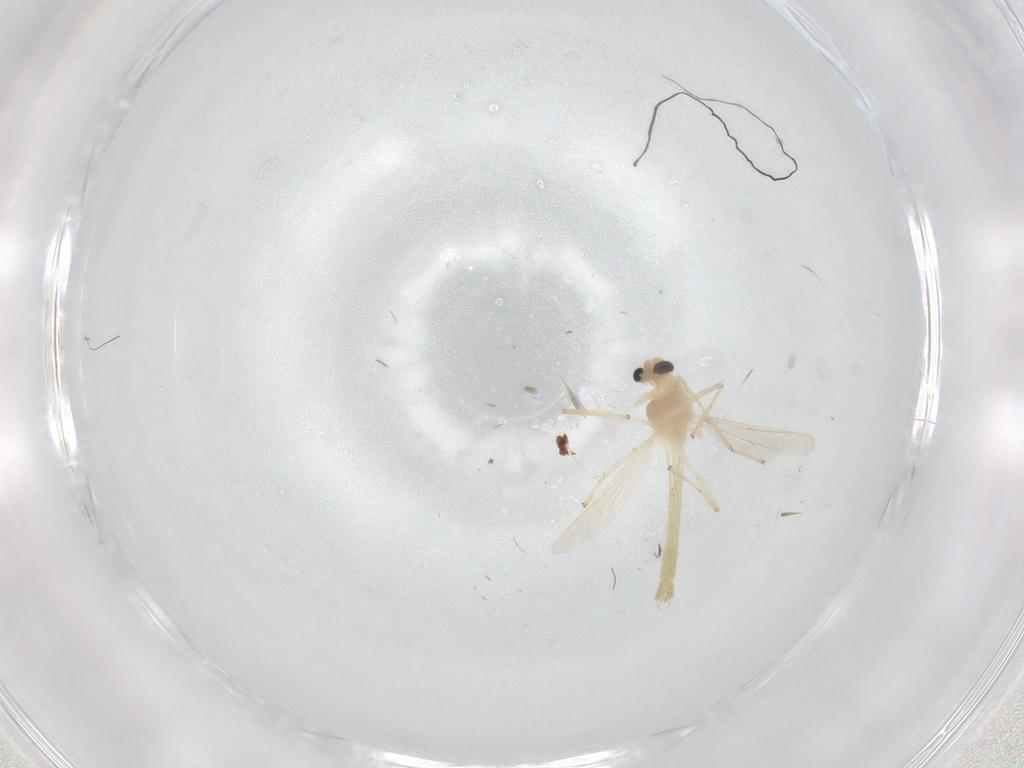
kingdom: Animalia
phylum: Arthropoda
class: Insecta
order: Diptera
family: Chironomidae
